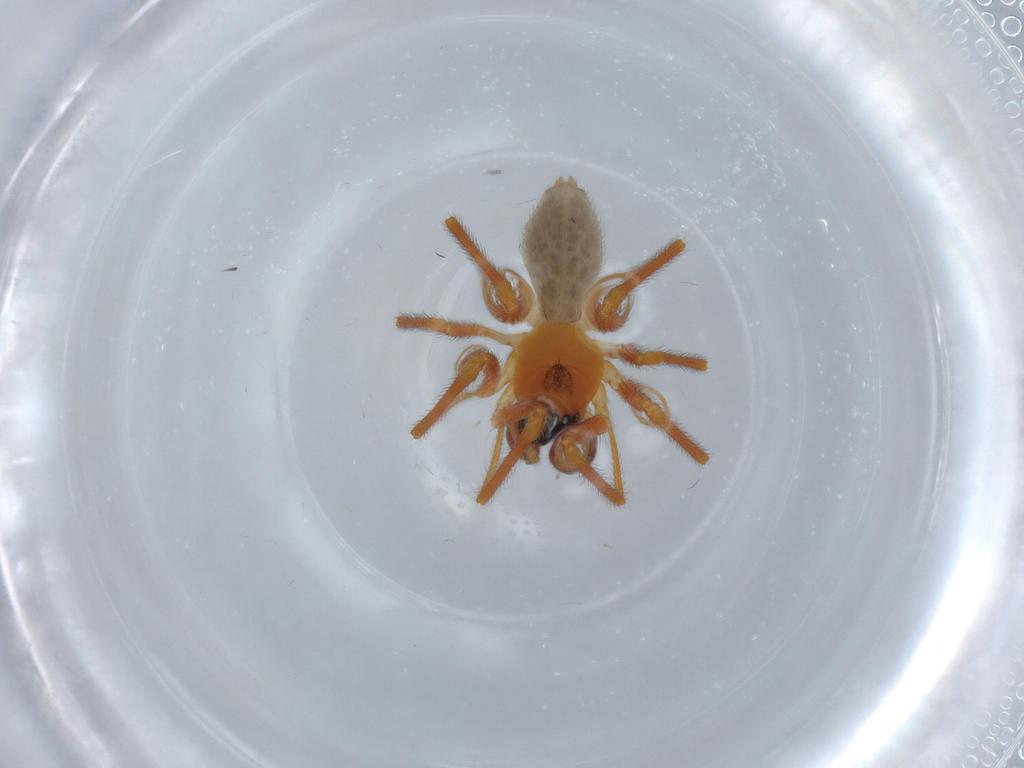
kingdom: Animalia
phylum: Arthropoda
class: Arachnida
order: Araneae
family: Linyphiidae
